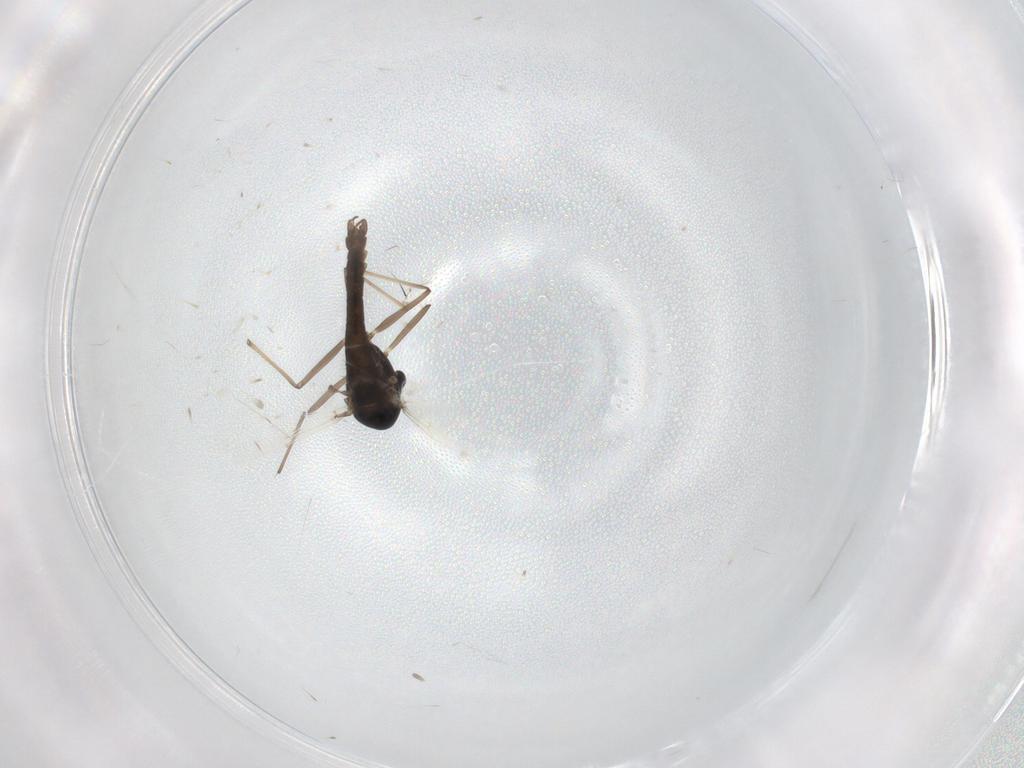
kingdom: Animalia
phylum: Arthropoda
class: Insecta
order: Diptera
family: Chironomidae
